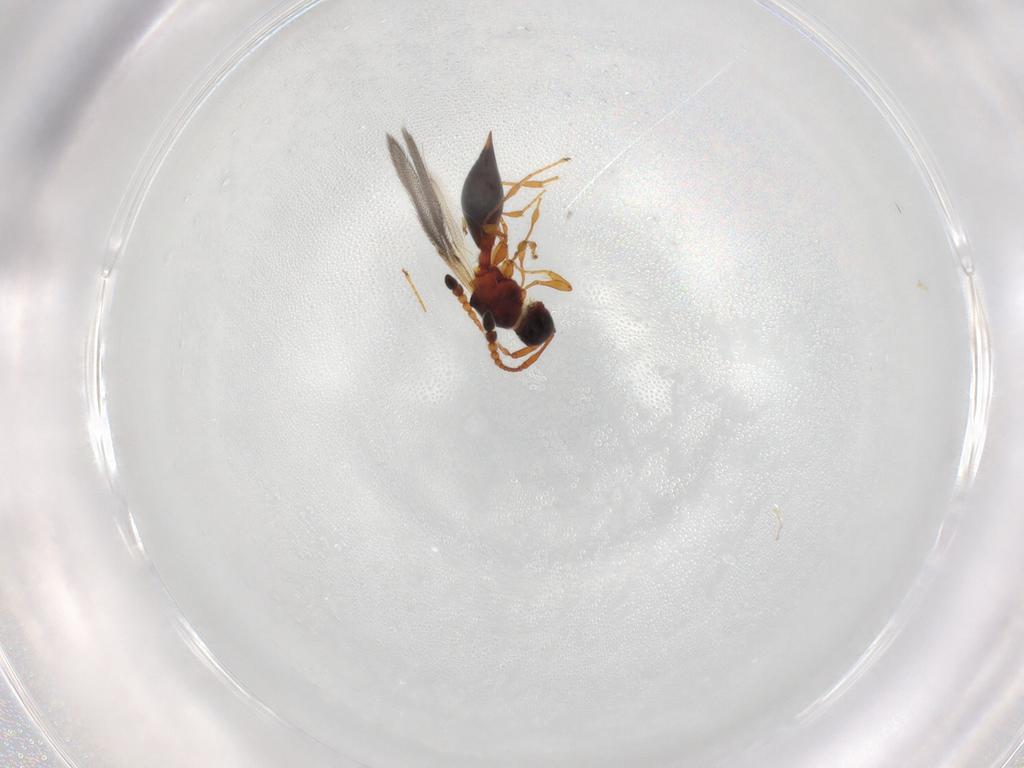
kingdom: Animalia
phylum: Arthropoda
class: Insecta
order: Hymenoptera
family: Diapriidae
